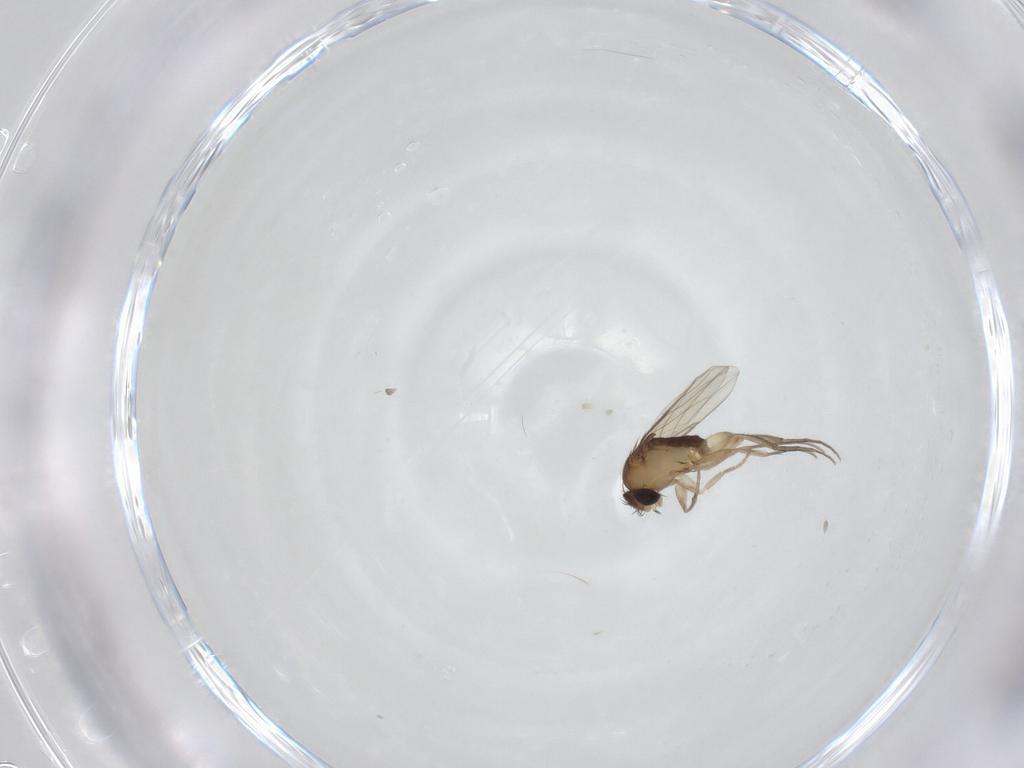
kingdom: Animalia
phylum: Arthropoda
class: Insecta
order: Diptera
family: Phoridae
